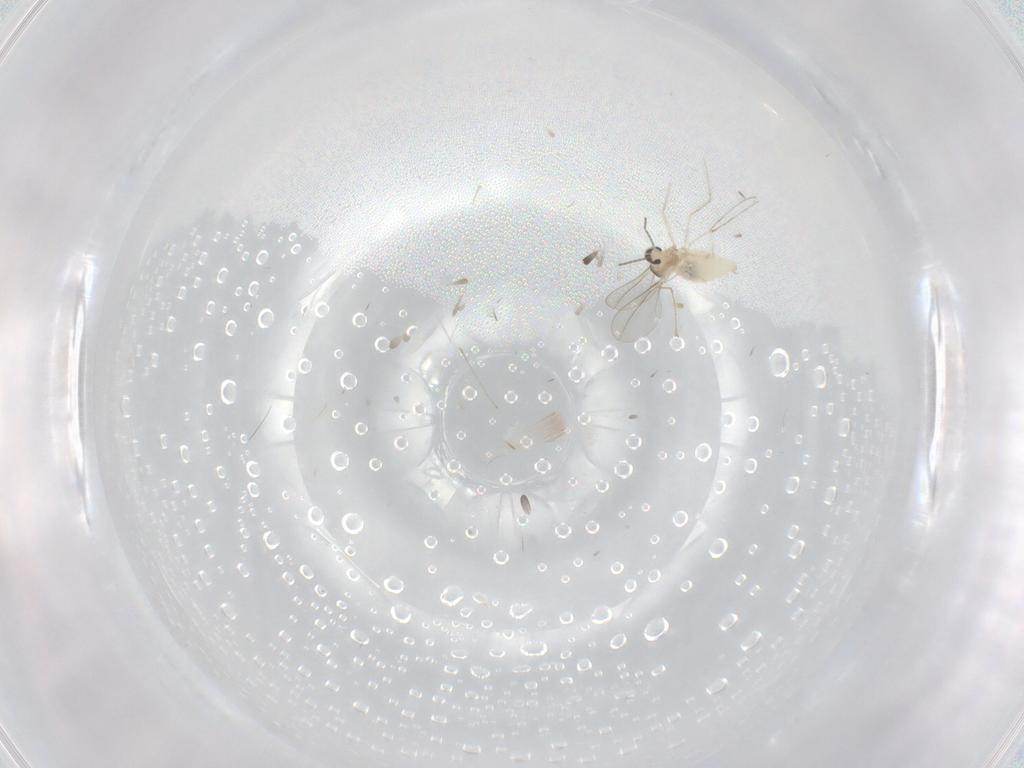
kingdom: Animalia
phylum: Arthropoda
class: Insecta
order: Diptera
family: Cecidomyiidae
